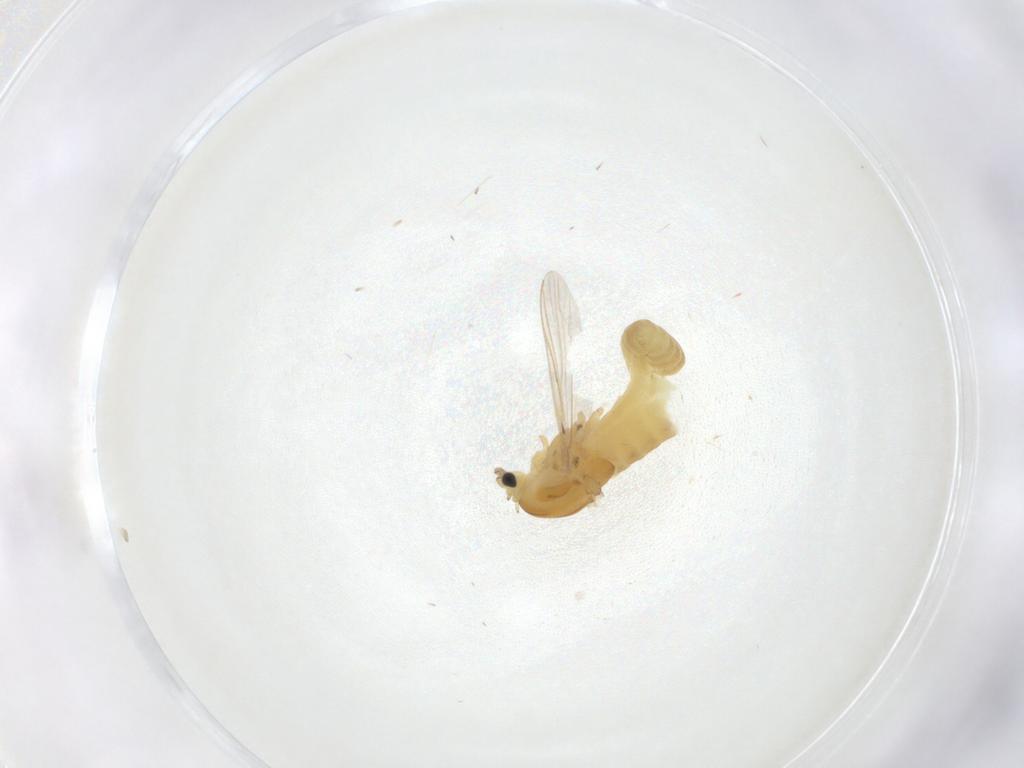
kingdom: Animalia
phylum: Arthropoda
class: Insecta
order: Diptera
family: Chironomidae
